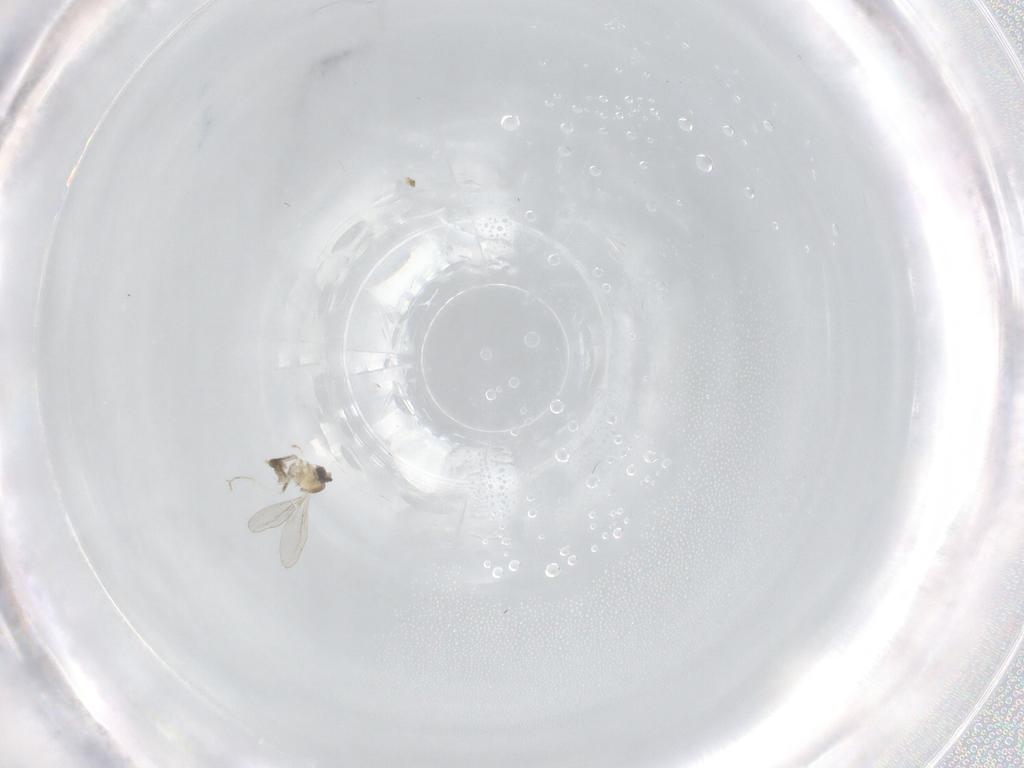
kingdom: Animalia
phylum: Arthropoda
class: Insecta
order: Diptera
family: Cecidomyiidae
